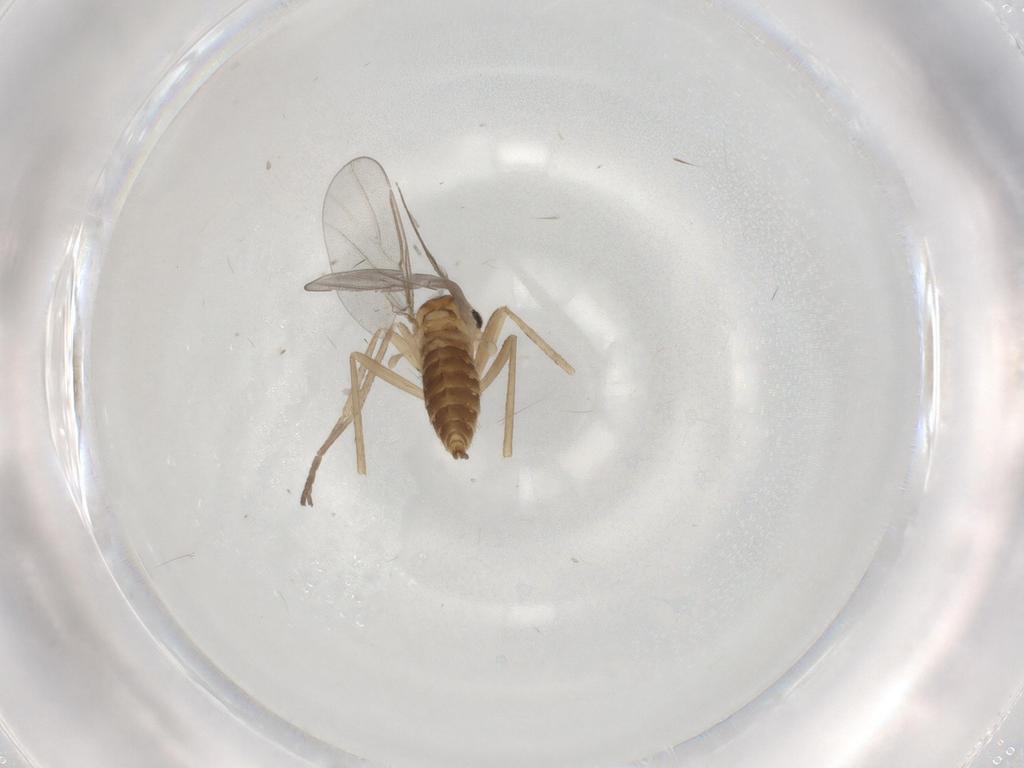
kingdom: Animalia
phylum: Arthropoda
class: Insecta
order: Diptera
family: Cecidomyiidae
